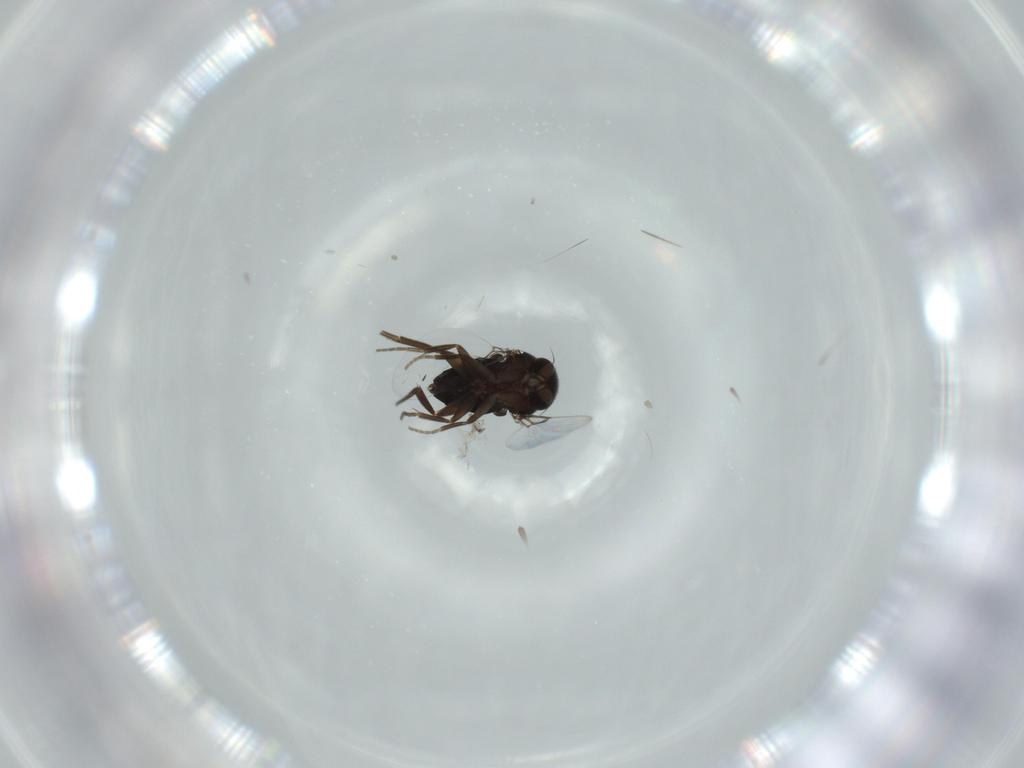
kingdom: Animalia
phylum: Arthropoda
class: Insecta
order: Diptera
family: Phoridae
